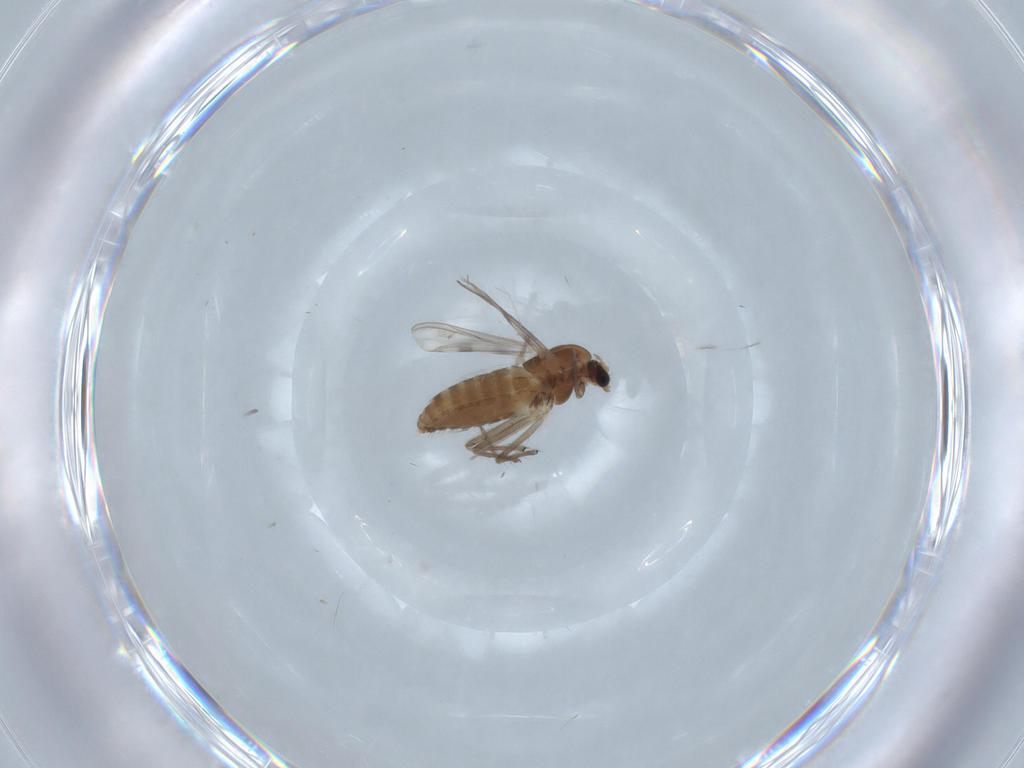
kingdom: Animalia
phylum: Arthropoda
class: Insecta
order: Diptera
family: Chironomidae
